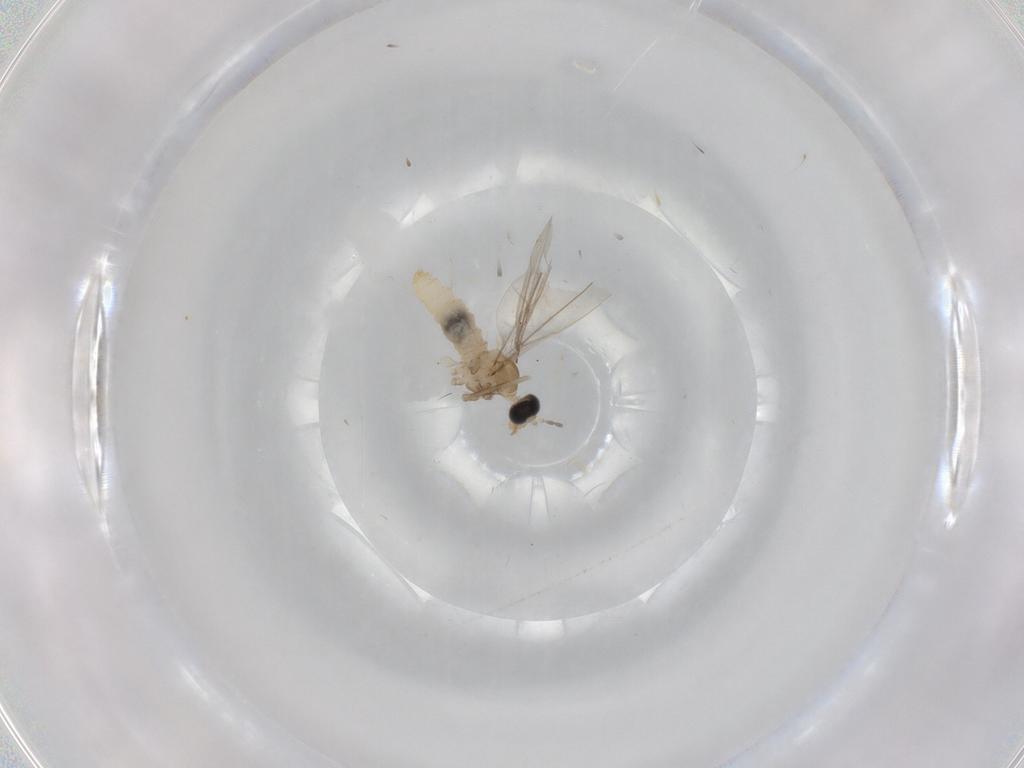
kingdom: Animalia
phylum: Arthropoda
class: Insecta
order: Diptera
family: Cecidomyiidae
